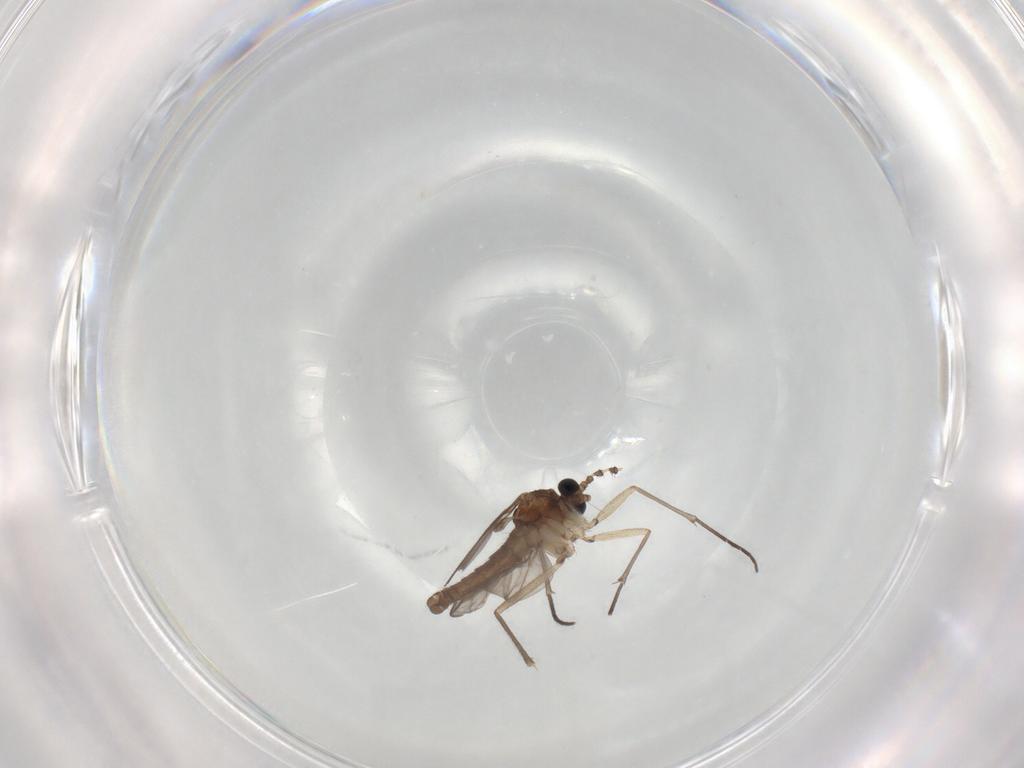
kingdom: Animalia
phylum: Arthropoda
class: Insecta
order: Diptera
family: Sciaridae
